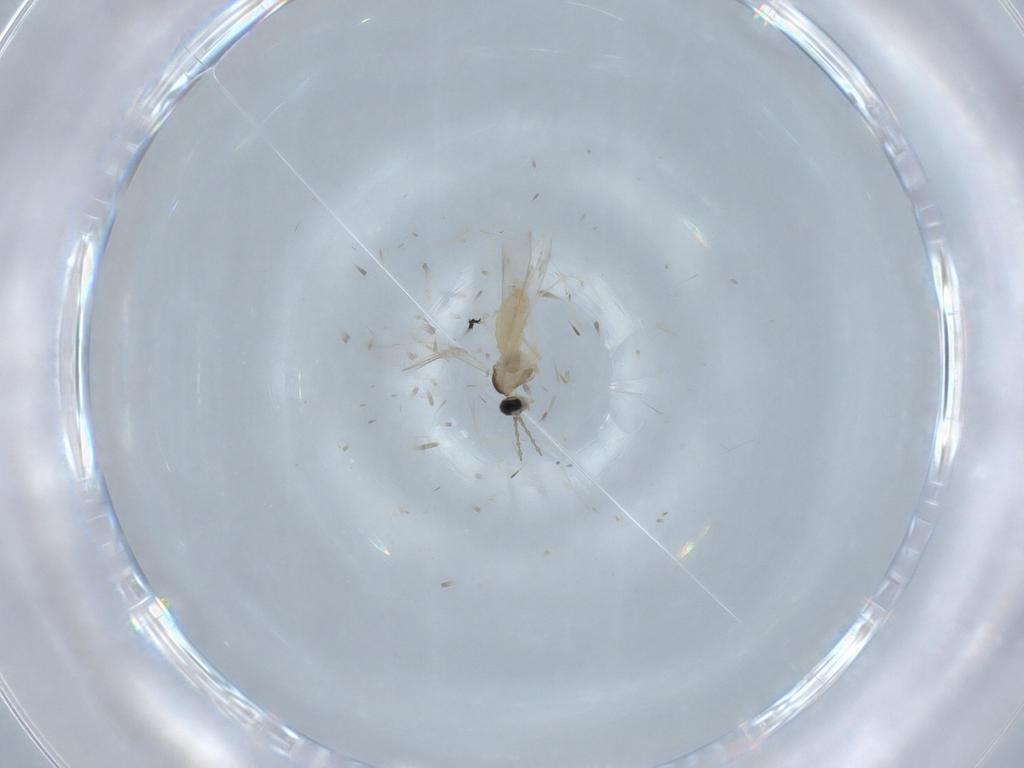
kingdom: Animalia
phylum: Arthropoda
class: Insecta
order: Diptera
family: Cecidomyiidae
